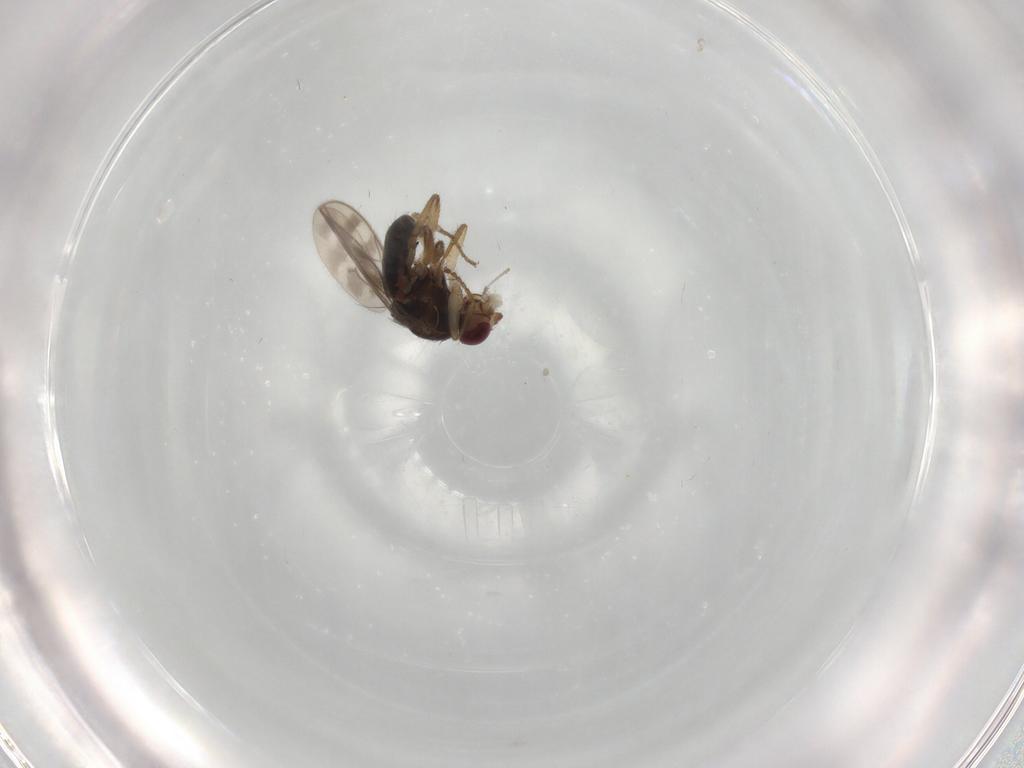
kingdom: Animalia
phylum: Arthropoda
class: Insecta
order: Diptera
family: Sphaeroceridae
